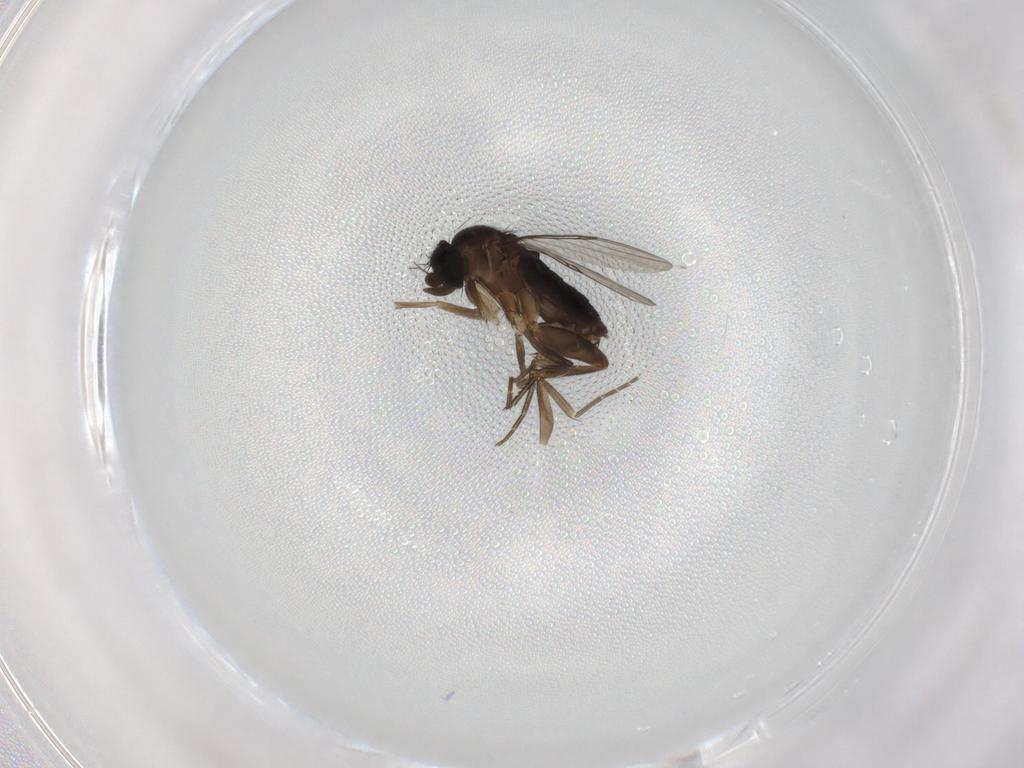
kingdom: Animalia
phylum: Arthropoda
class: Insecta
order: Diptera
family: Phoridae
